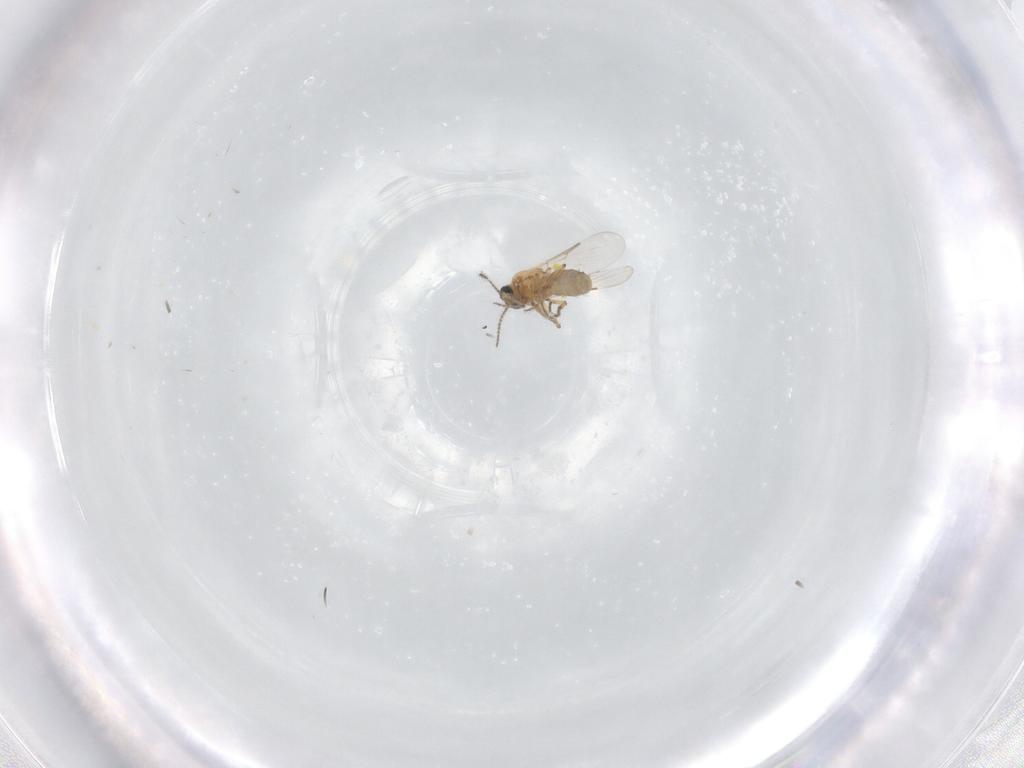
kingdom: Animalia
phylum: Arthropoda
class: Insecta
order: Diptera
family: Ceratopogonidae
